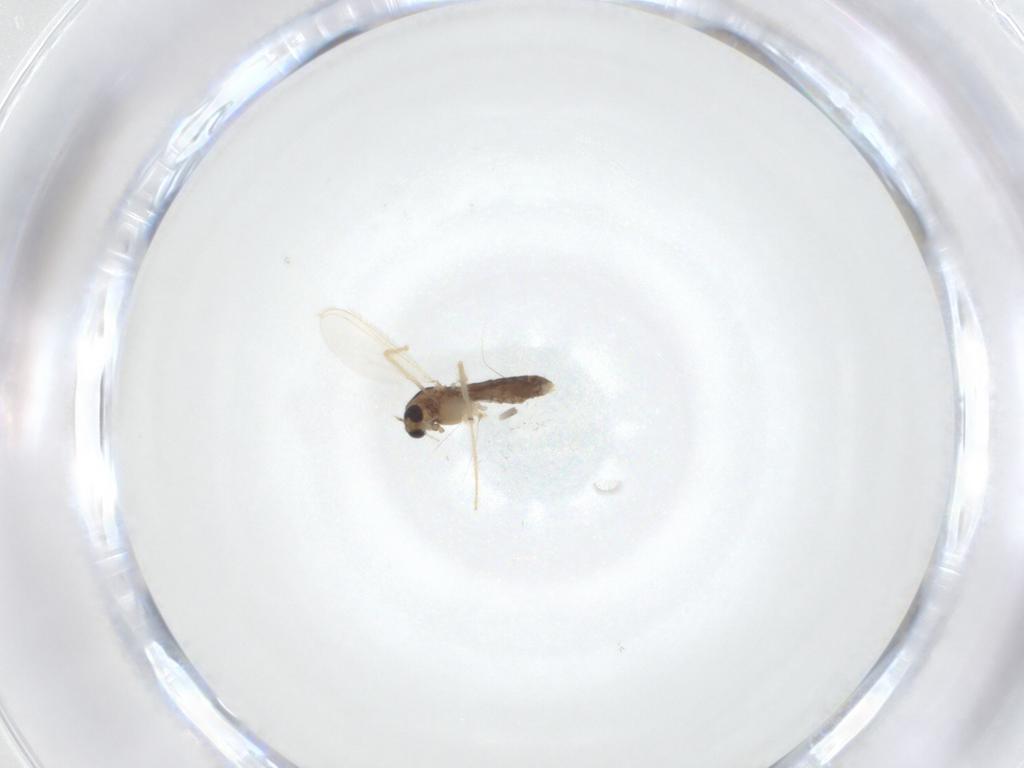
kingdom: Animalia
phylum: Arthropoda
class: Insecta
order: Diptera
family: Chironomidae
